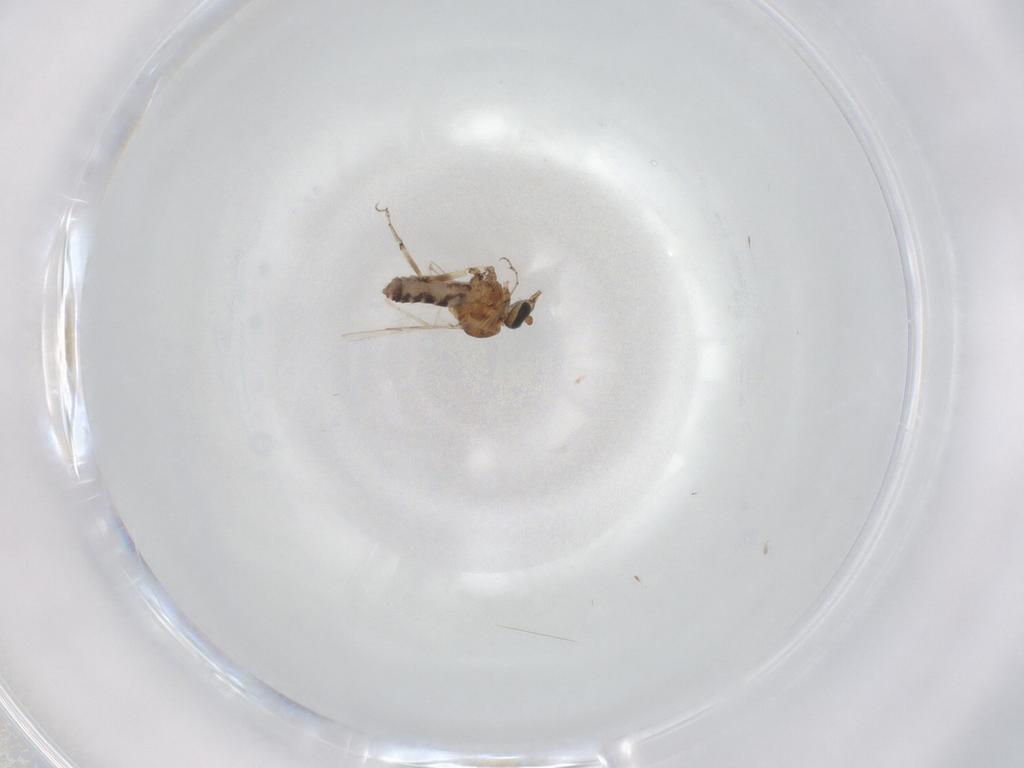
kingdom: Animalia
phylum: Arthropoda
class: Insecta
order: Diptera
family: Ceratopogonidae
